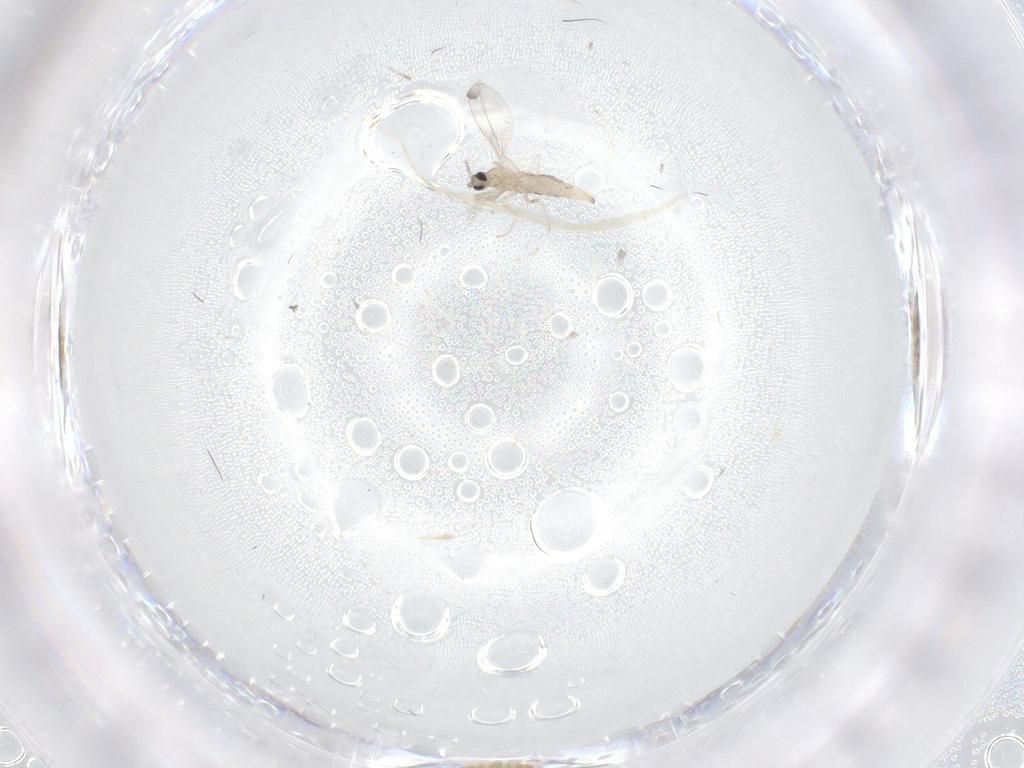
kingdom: Animalia
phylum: Arthropoda
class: Insecta
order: Diptera
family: Cecidomyiidae
